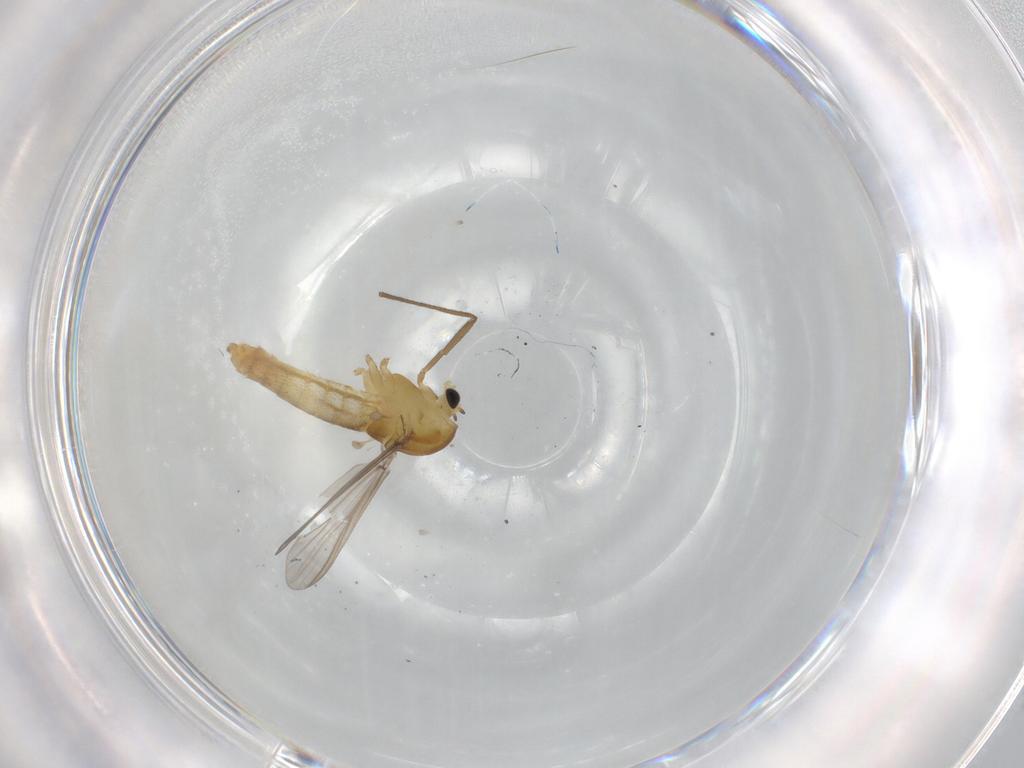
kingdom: Animalia
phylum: Arthropoda
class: Insecta
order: Diptera
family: Chironomidae
